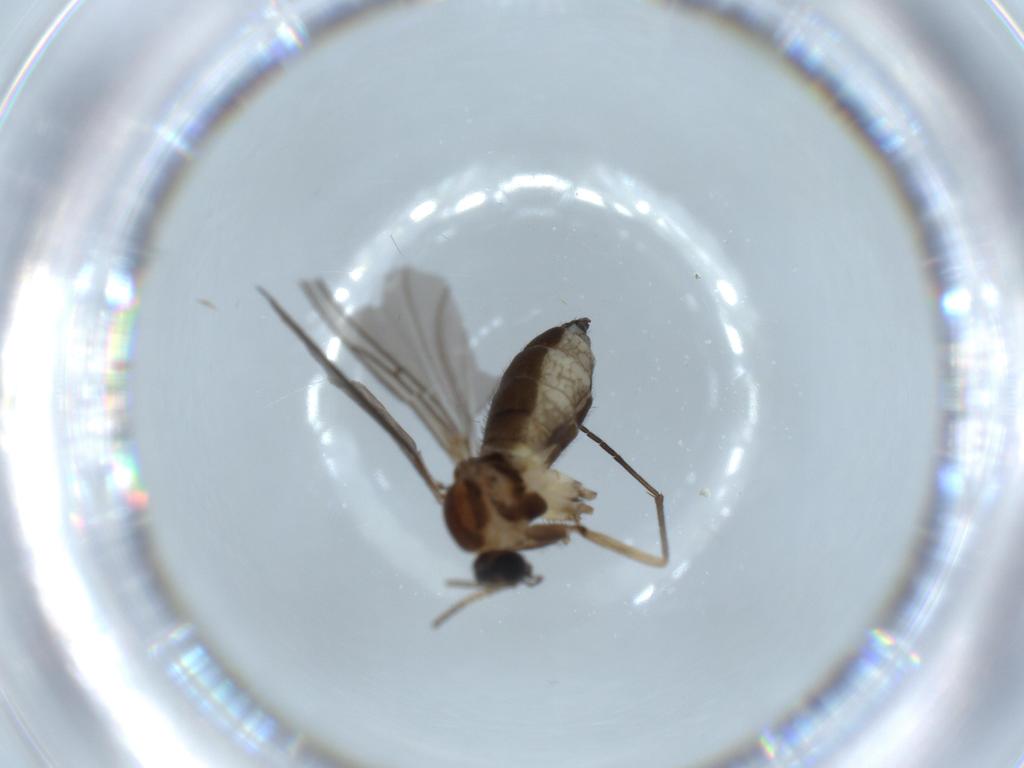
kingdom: Animalia
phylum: Arthropoda
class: Insecta
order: Diptera
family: Sciaridae
